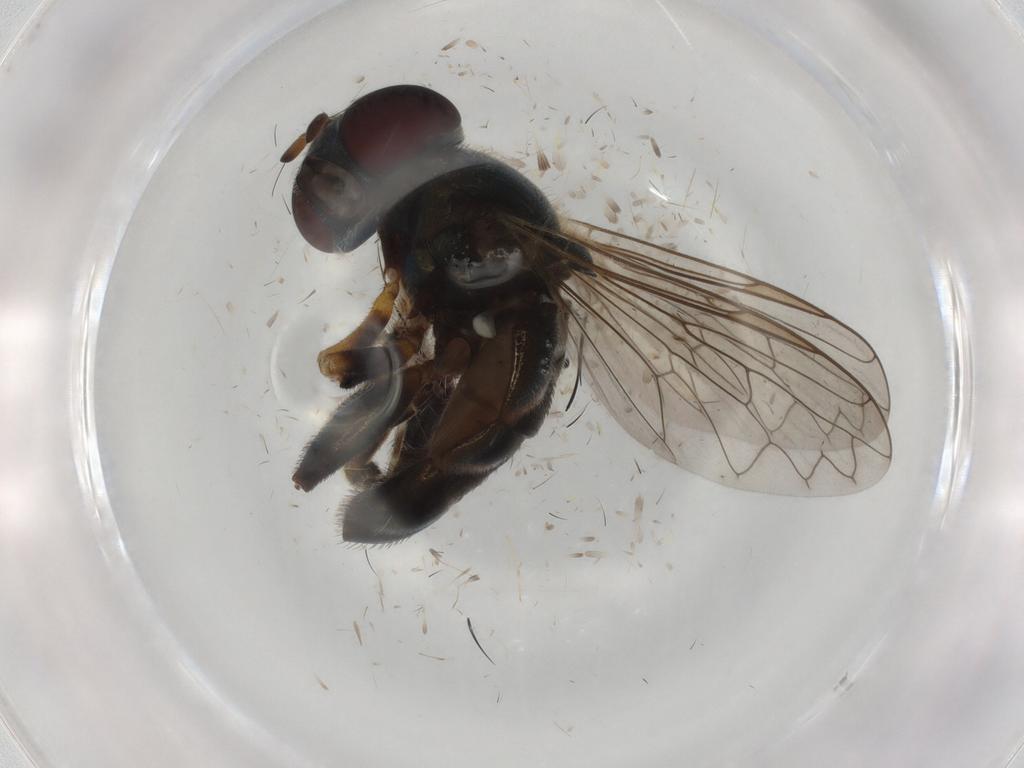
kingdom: Animalia
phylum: Arthropoda
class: Insecta
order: Diptera
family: Syrphidae
